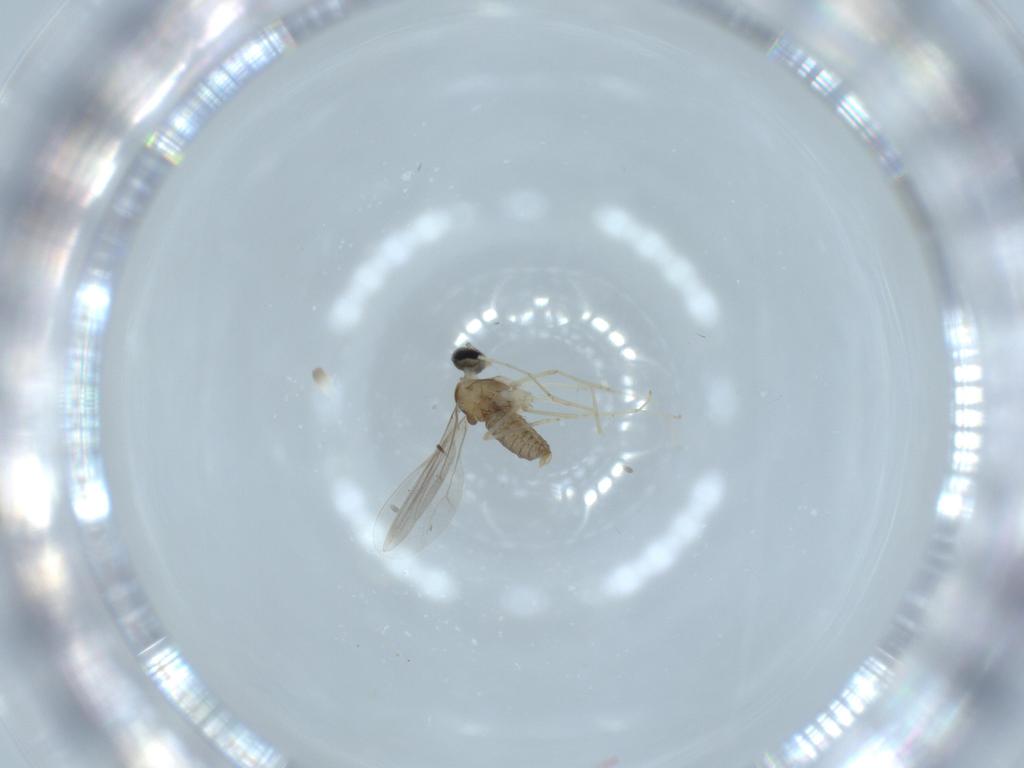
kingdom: Animalia
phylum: Arthropoda
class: Insecta
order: Diptera
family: Cecidomyiidae
